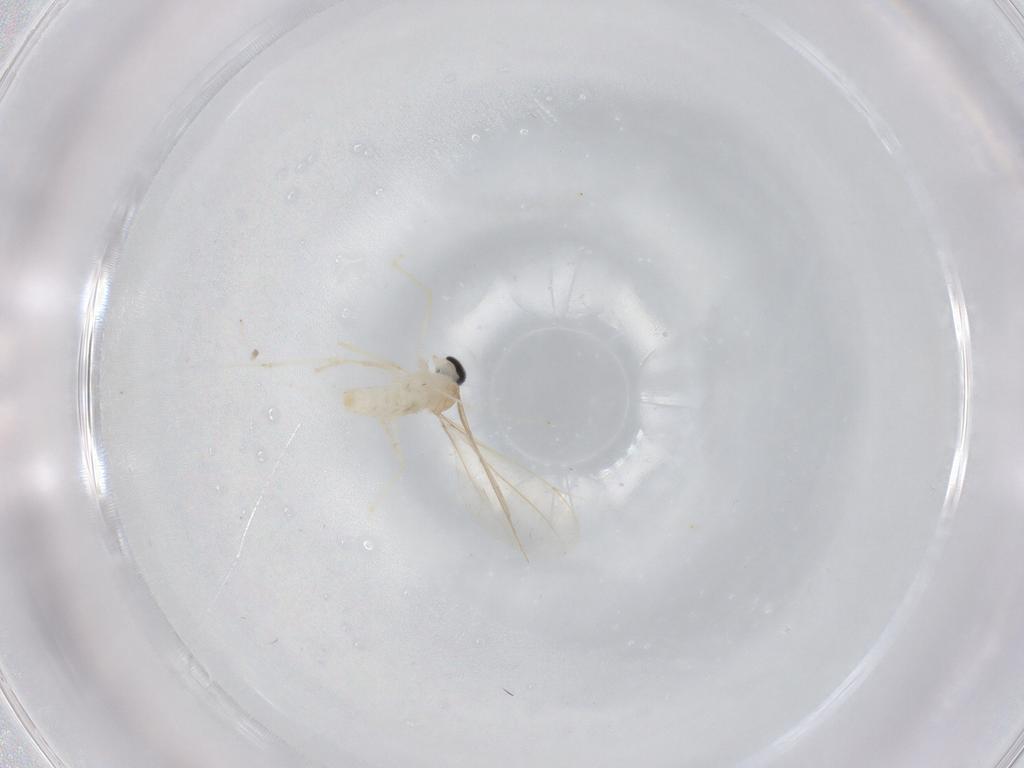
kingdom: Animalia
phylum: Arthropoda
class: Insecta
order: Diptera
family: Cecidomyiidae
